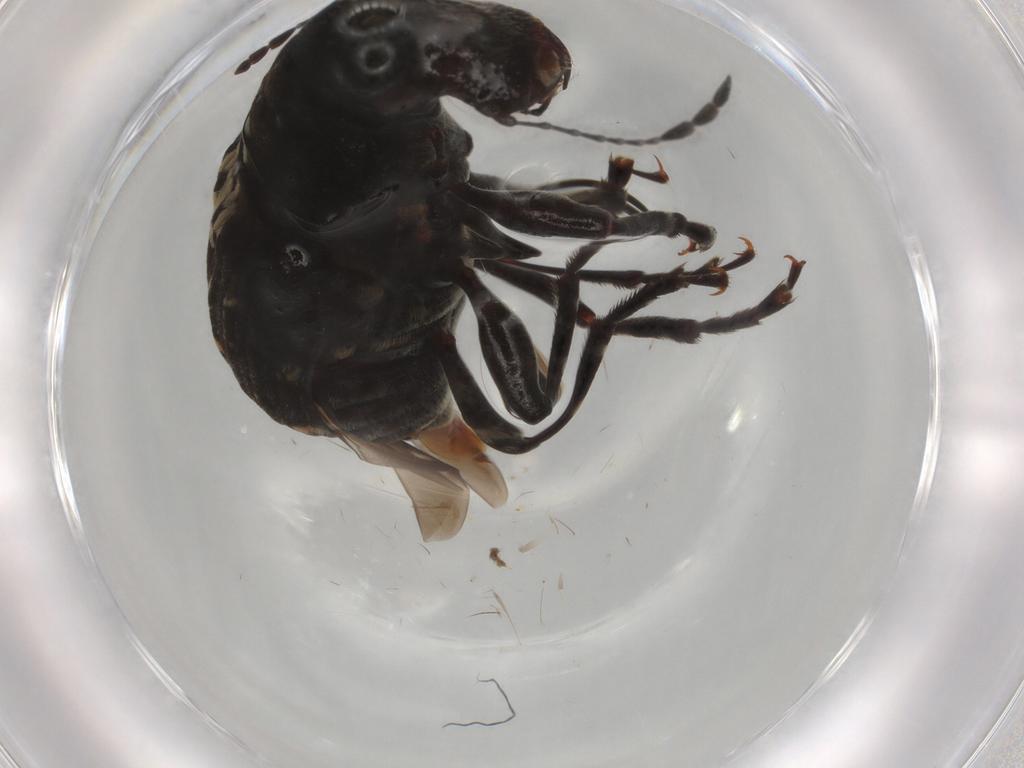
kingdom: Animalia
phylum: Arthropoda
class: Insecta
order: Coleoptera
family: Anthribidae
